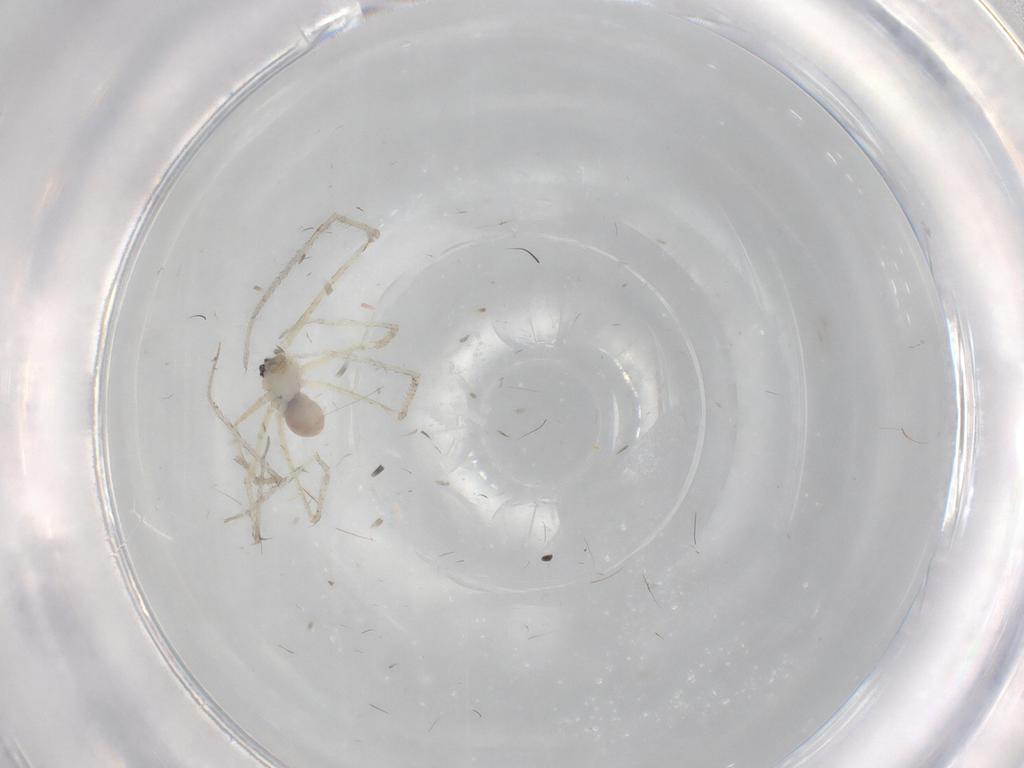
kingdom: Animalia
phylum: Arthropoda
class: Arachnida
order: Araneae
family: Pholcidae
